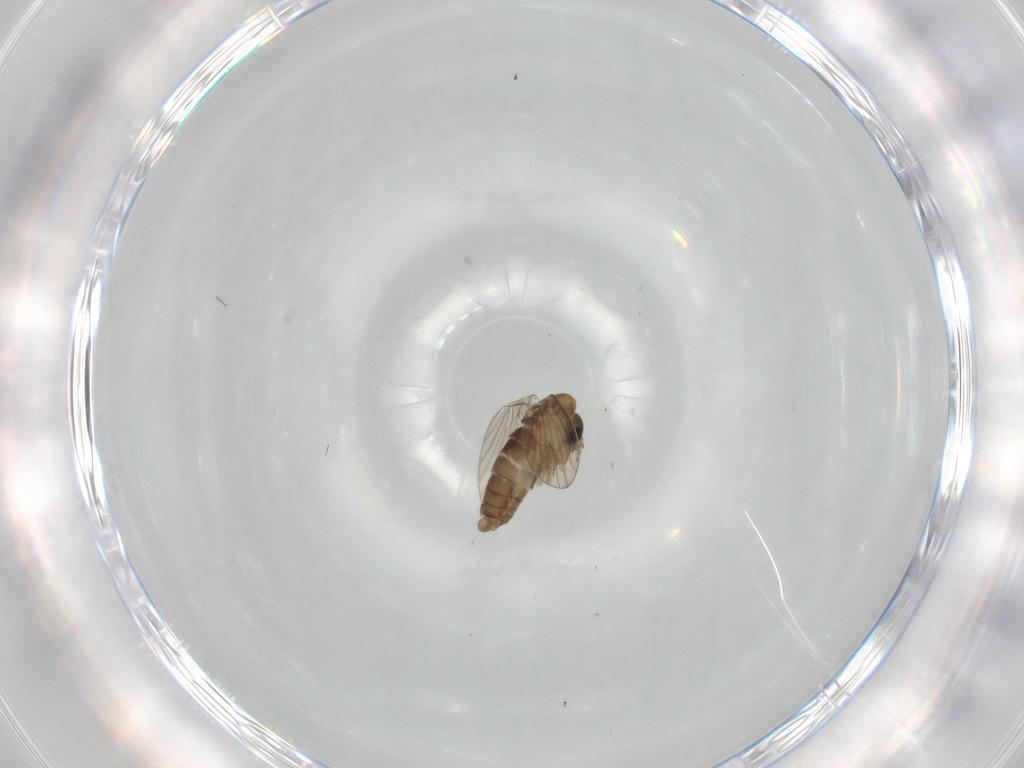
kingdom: Animalia
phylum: Arthropoda
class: Insecta
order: Diptera
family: Psychodidae
